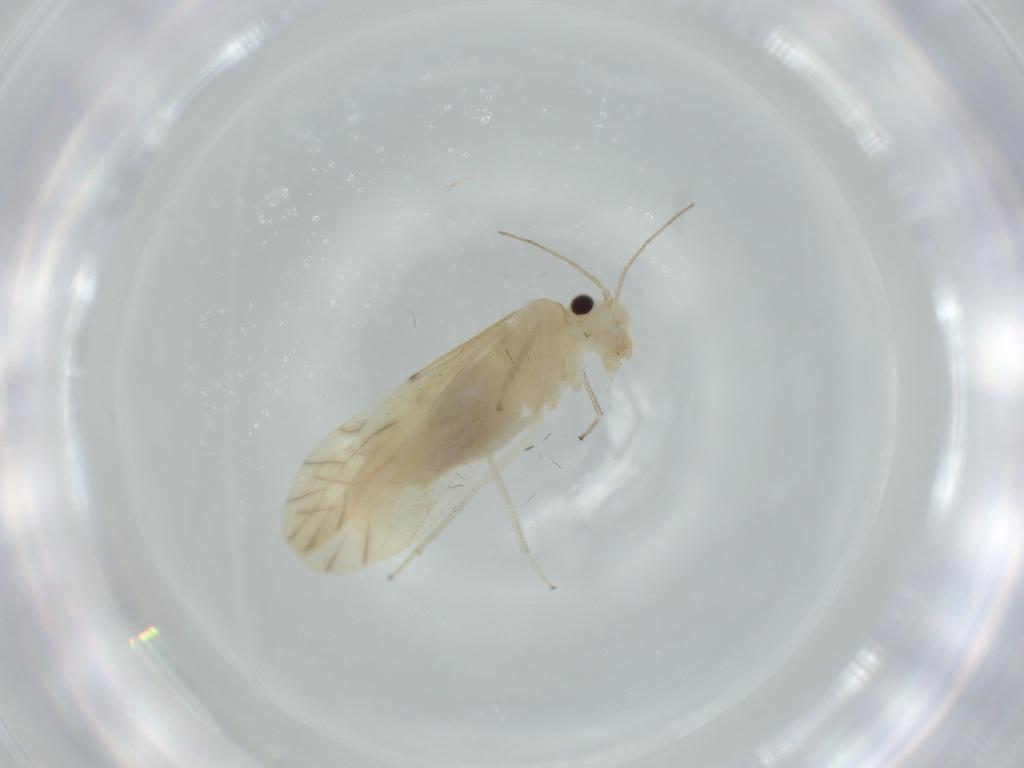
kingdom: Animalia
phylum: Arthropoda
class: Insecta
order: Psocodea
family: Caeciliusidae
